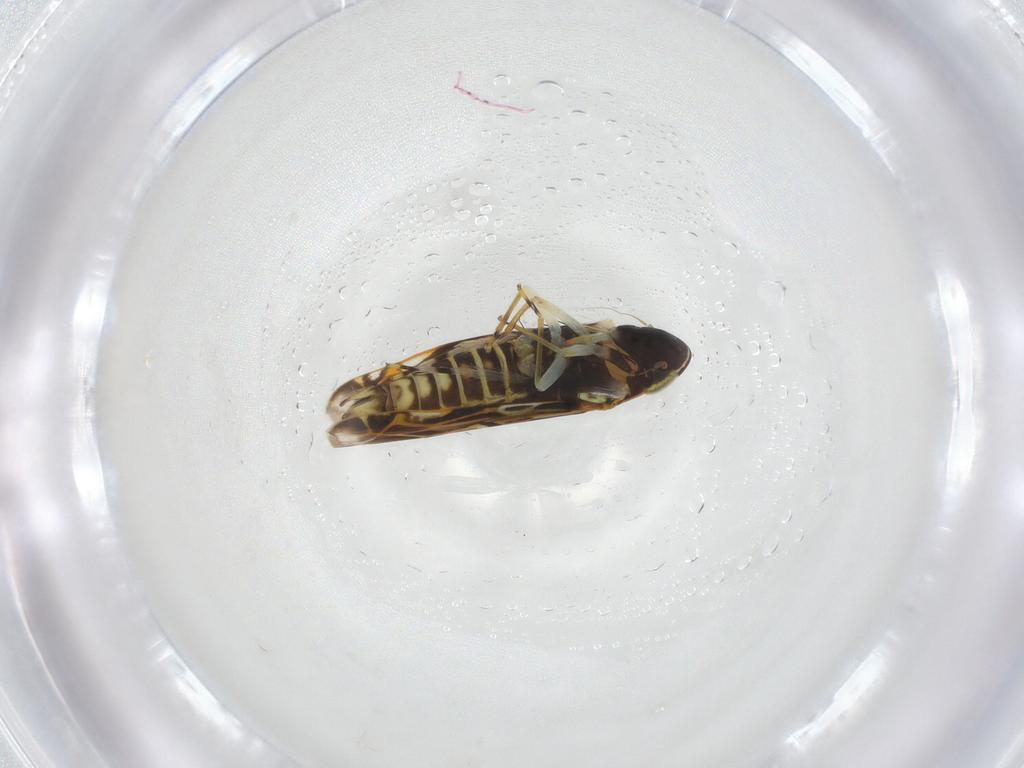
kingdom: Animalia
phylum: Arthropoda
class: Insecta
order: Hemiptera
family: Cicadellidae
